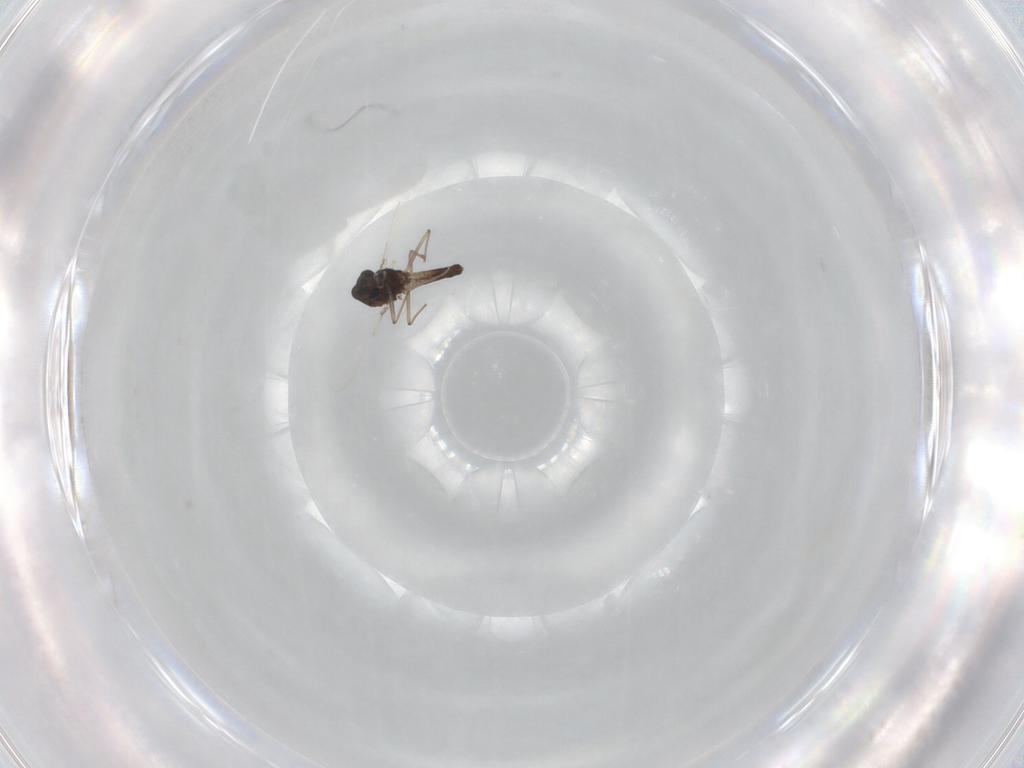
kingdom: Animalia
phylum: Arthropoda
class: Insecta
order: Diptera
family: Chironomidae
